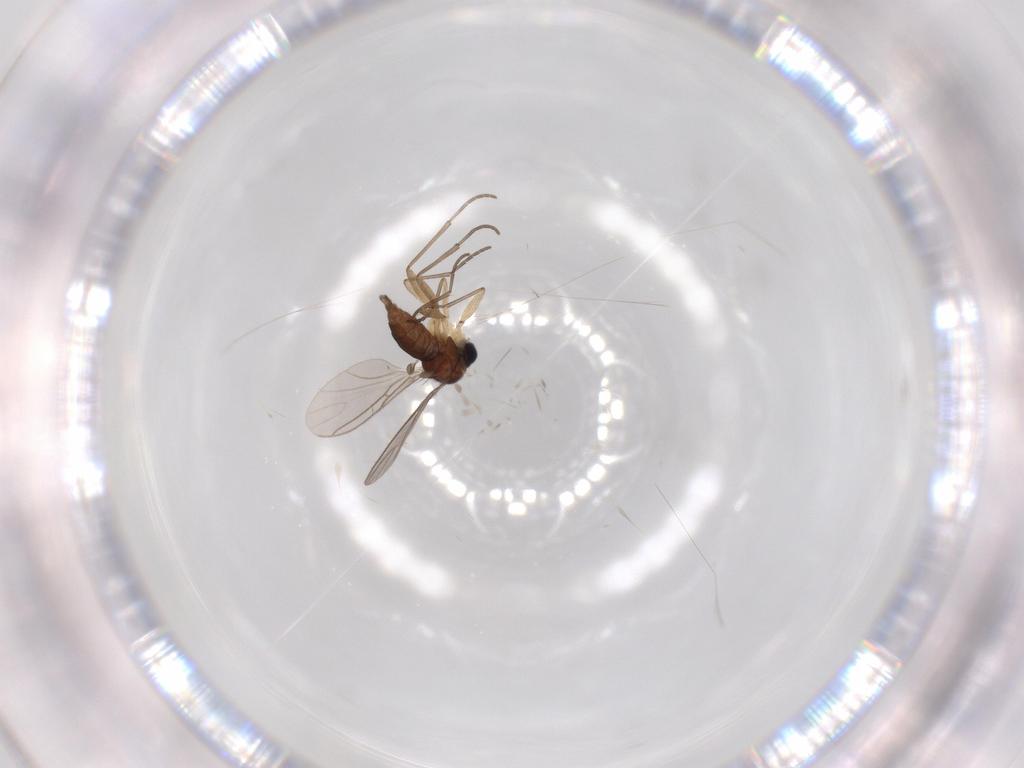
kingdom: Animalia
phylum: Arthropoda
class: Insecta
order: Diptera
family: Sciaridae
